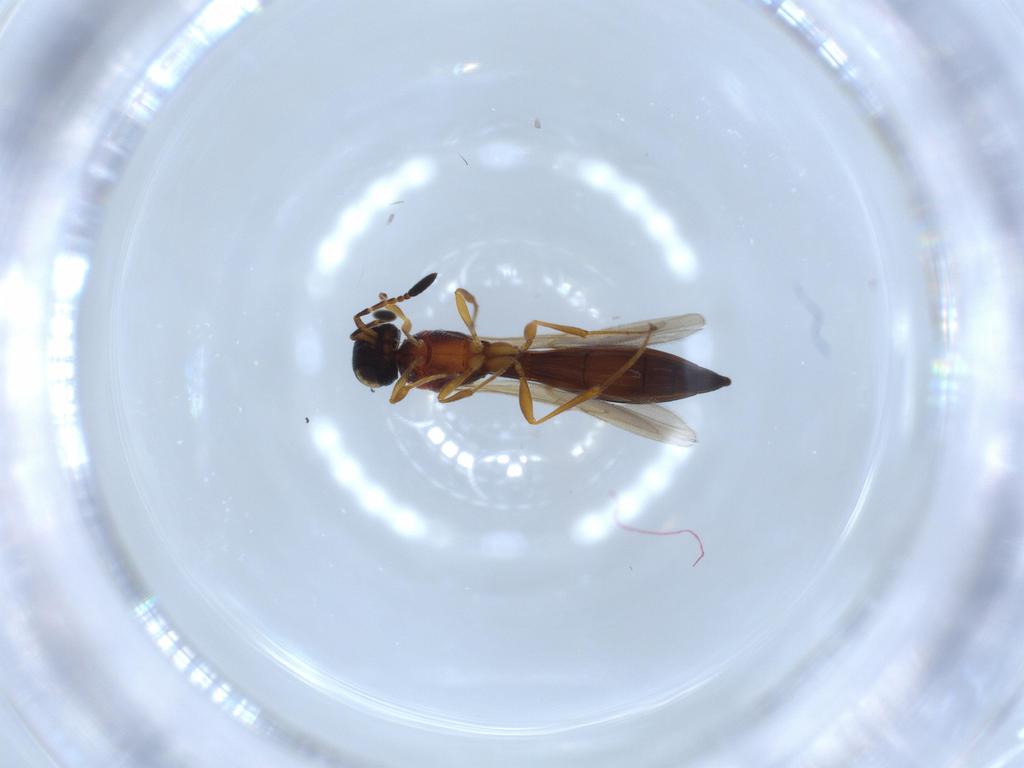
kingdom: Animalia
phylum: Arthropoda
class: Insecta
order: Hymenoptera
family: Scelionidae
